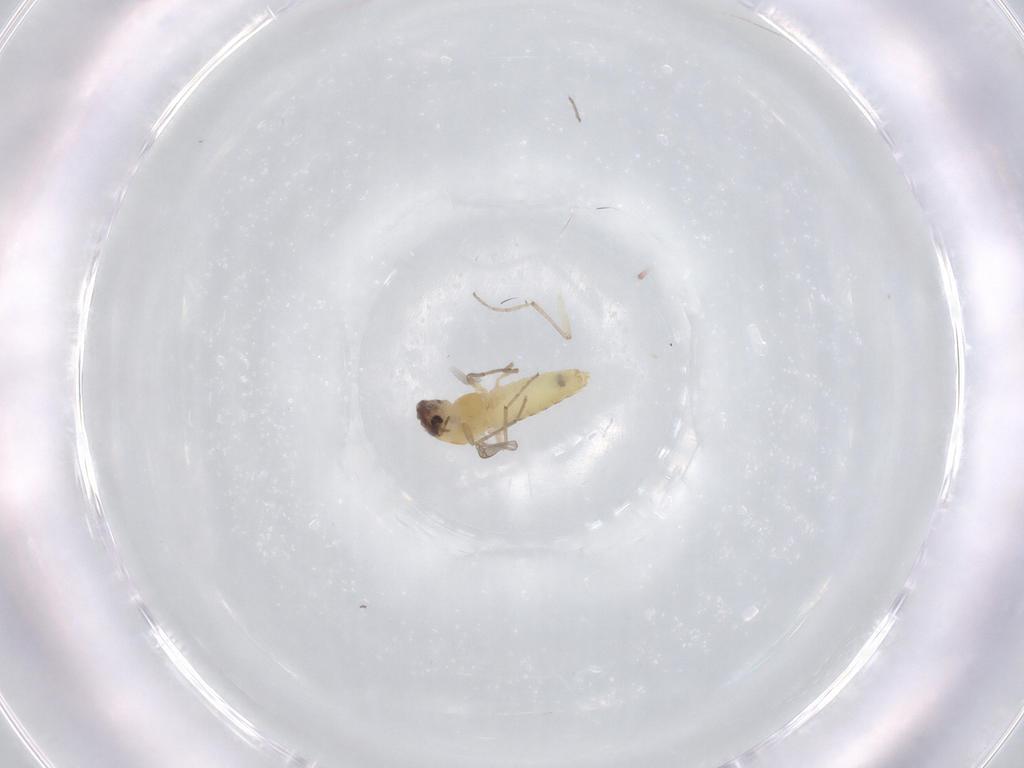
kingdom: Animalia
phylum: Arthropoda
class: Insecta
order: Diptera
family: Chironomidae
